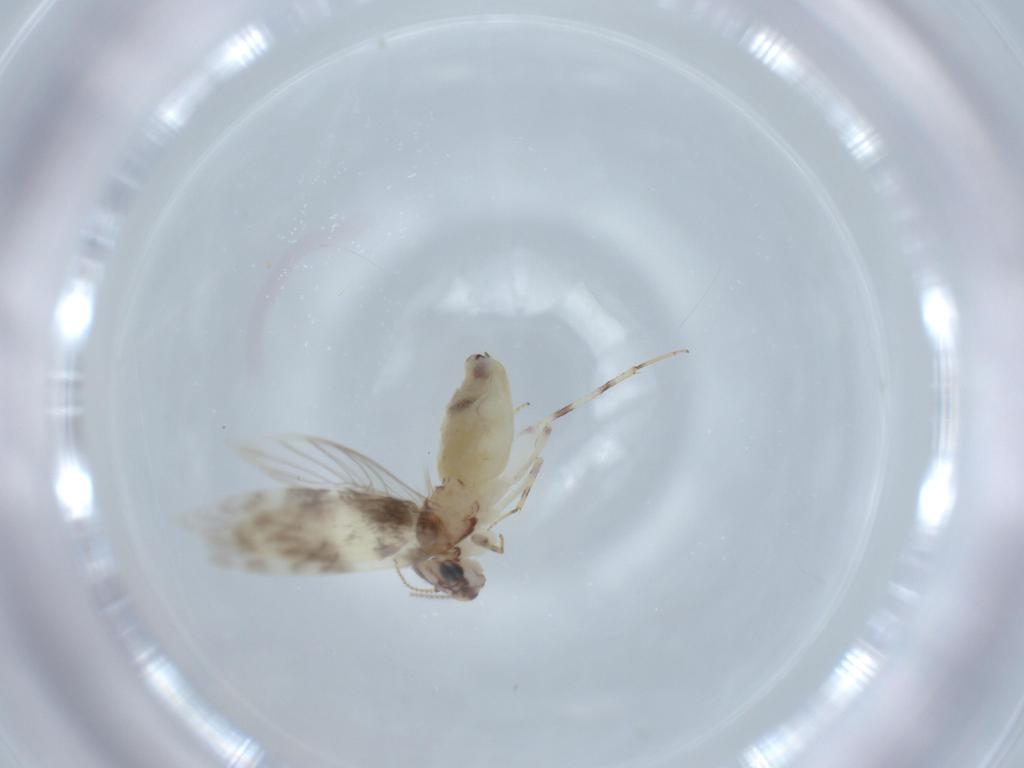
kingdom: Animalia
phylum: Arthropoda
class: Insecta
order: Psocodea
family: Lepidopsocidae
